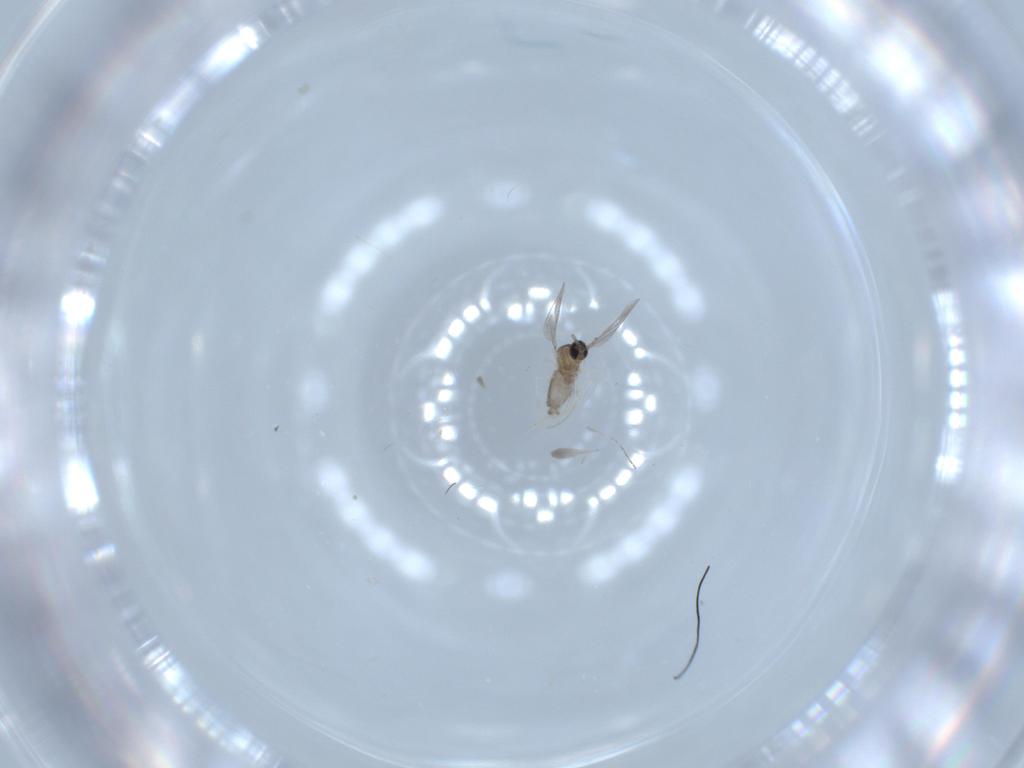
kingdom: Animalia
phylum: Arthropoda
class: Insecta
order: Diptera
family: Cecidomyiidae
